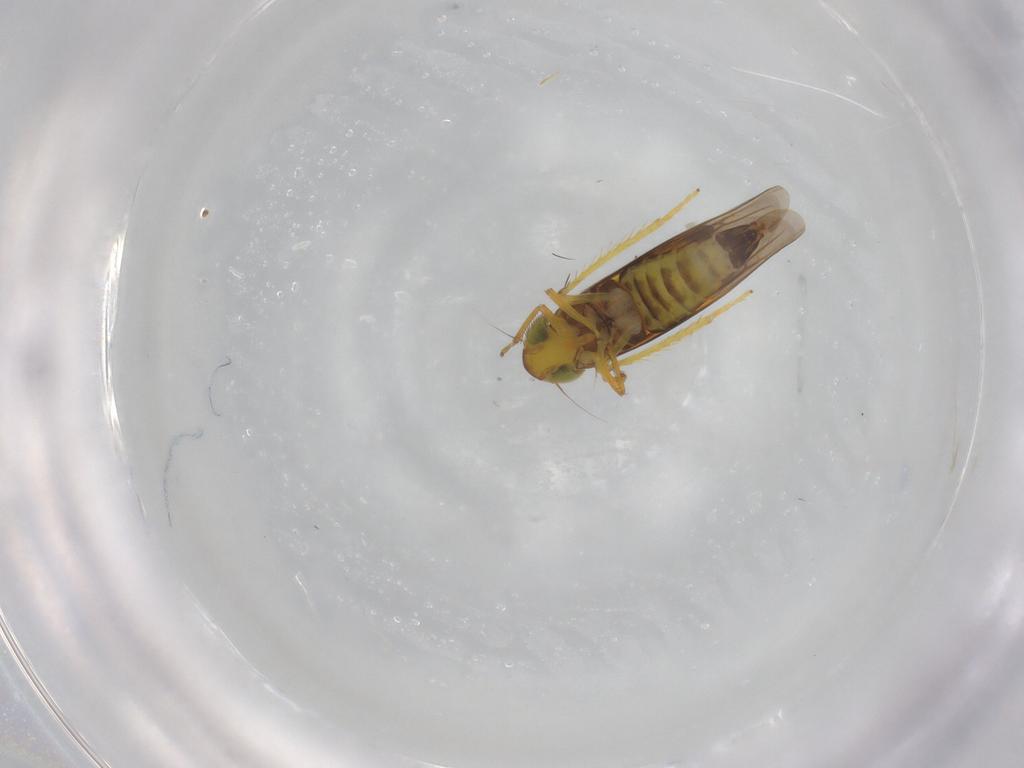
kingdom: Animalia
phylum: Arthropoda
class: Insecta
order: Hemiptera
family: Cicadellidae
